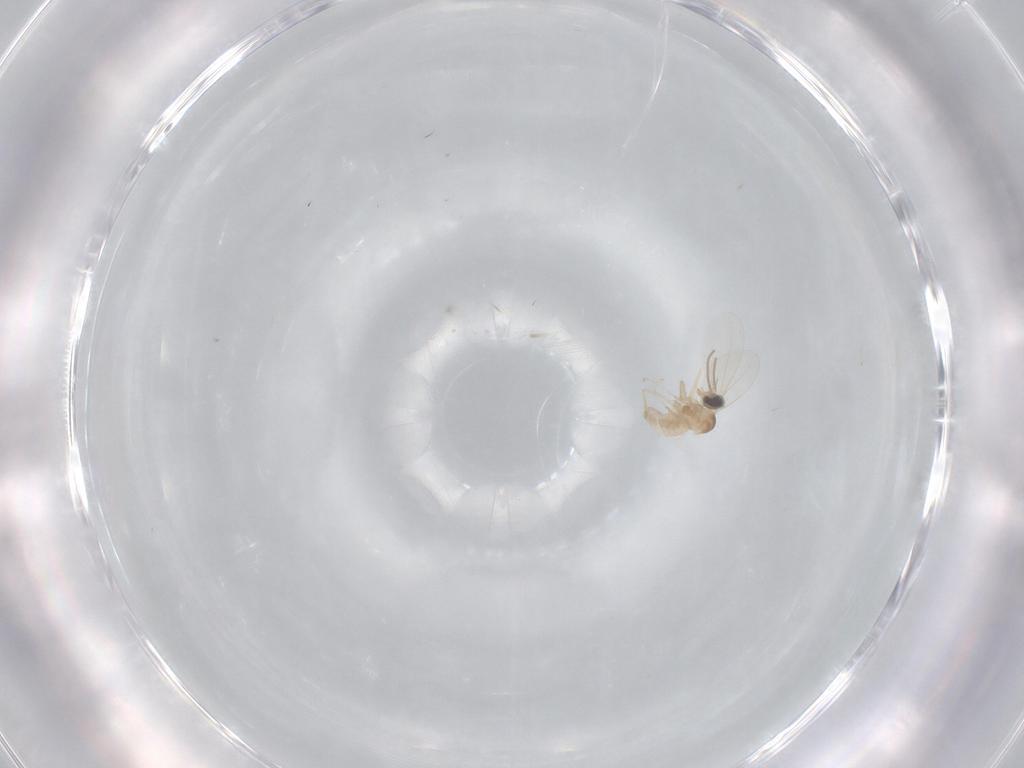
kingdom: Animalia
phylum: Arthropoda
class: Insecta
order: Diptera
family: Cecidomyiidae
